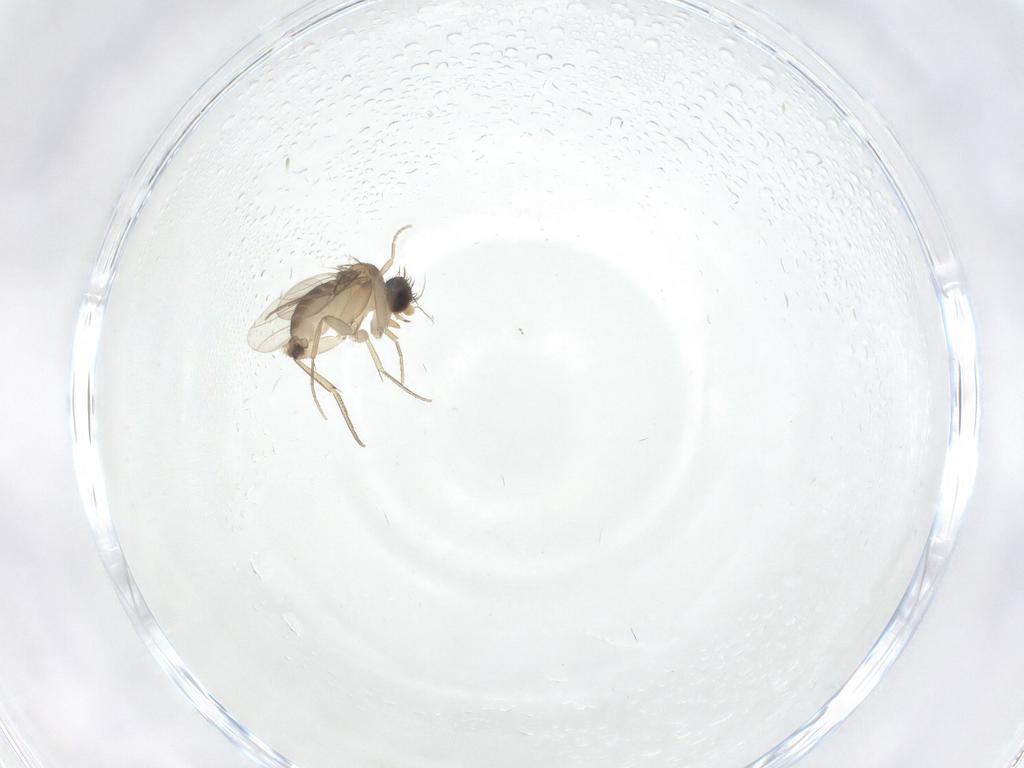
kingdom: Animalia
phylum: Arthropoda
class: Insecta
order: Diptera
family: Phoridae
